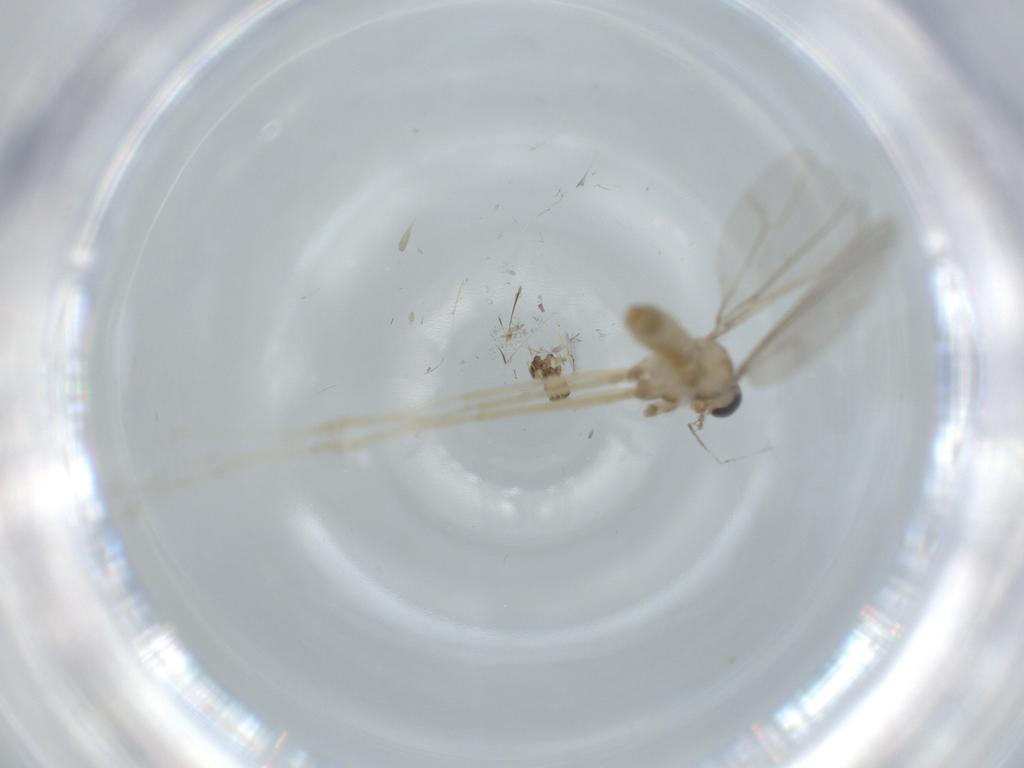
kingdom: Animalia
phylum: Arthropoda
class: Insecta
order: Diptera
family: Cecidomyiidae
